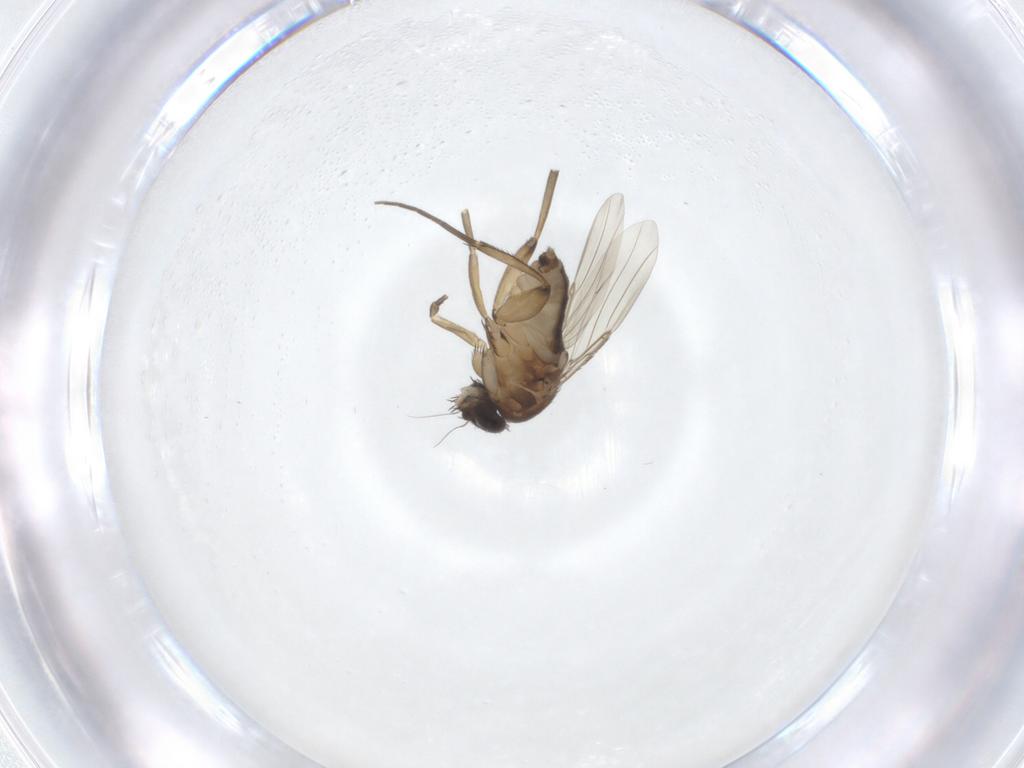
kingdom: Animalia
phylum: Arthropoda
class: Insecta
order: Diptera
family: Phoridae
